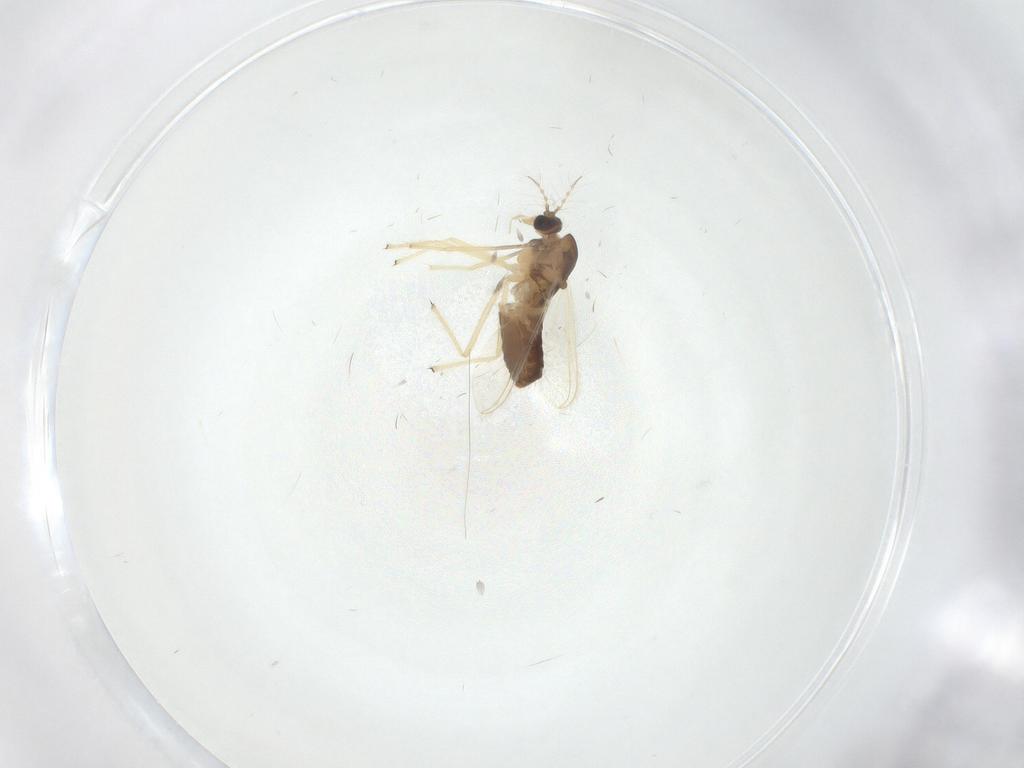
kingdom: Animalia
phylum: Arthropoda
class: Insecta
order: Diptera
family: Chironomidae
